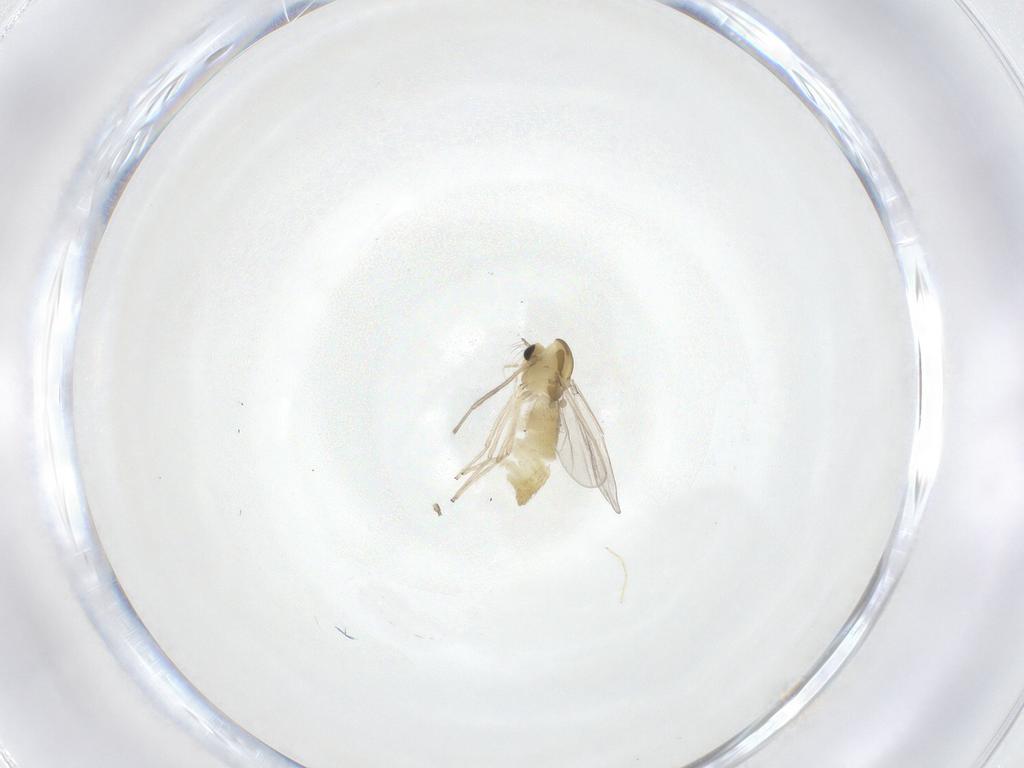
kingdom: Animalia
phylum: Arthropoda
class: Insecta
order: Diptera
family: Chironomidae
